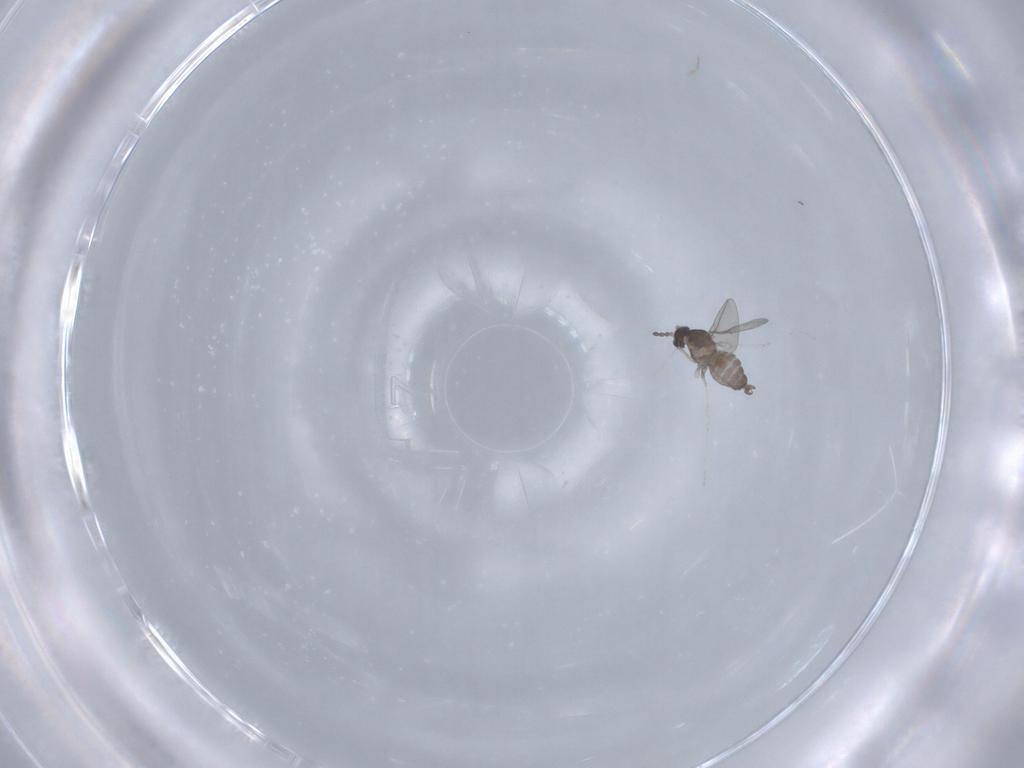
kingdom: Animalia
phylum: Arthropoda
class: Insecta
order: Diptera
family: Cecidomyiidae
